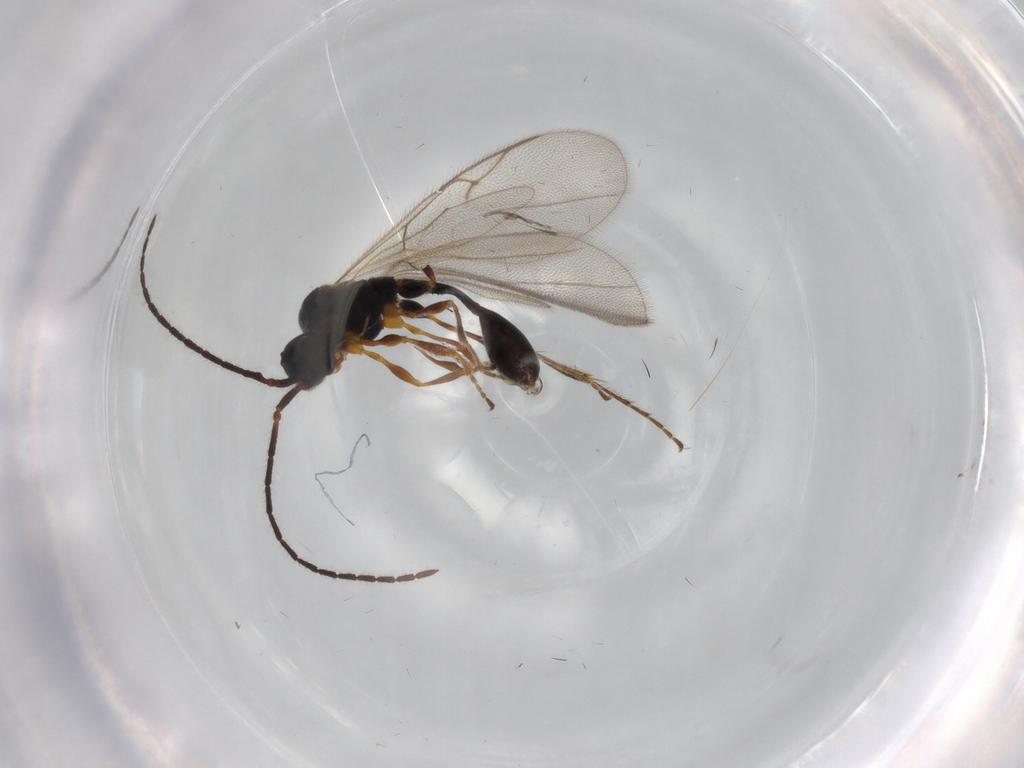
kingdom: Animalia
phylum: Arthropoda
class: Insecta
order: Hymenoptera
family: Diapriidae
